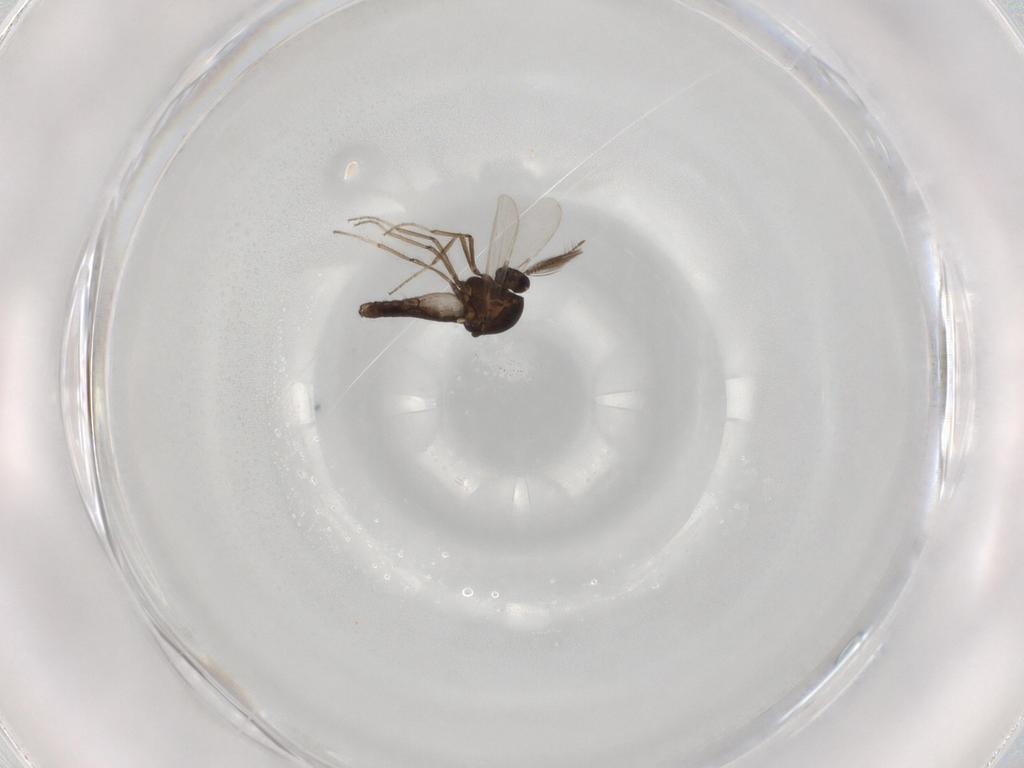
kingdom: Animalia
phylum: Arthropoda
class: Insecta
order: Diptera
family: Chironomidae
